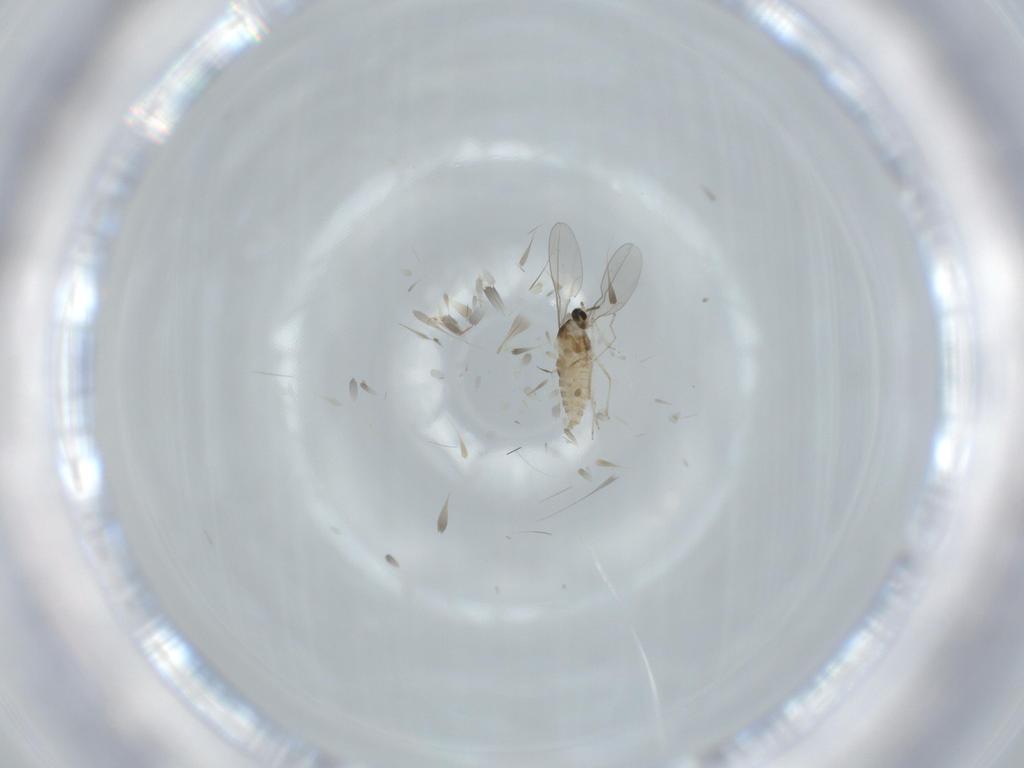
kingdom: Animalia
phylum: Arthropoda
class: Insecta
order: Diptera
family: Cecidomyiidae
